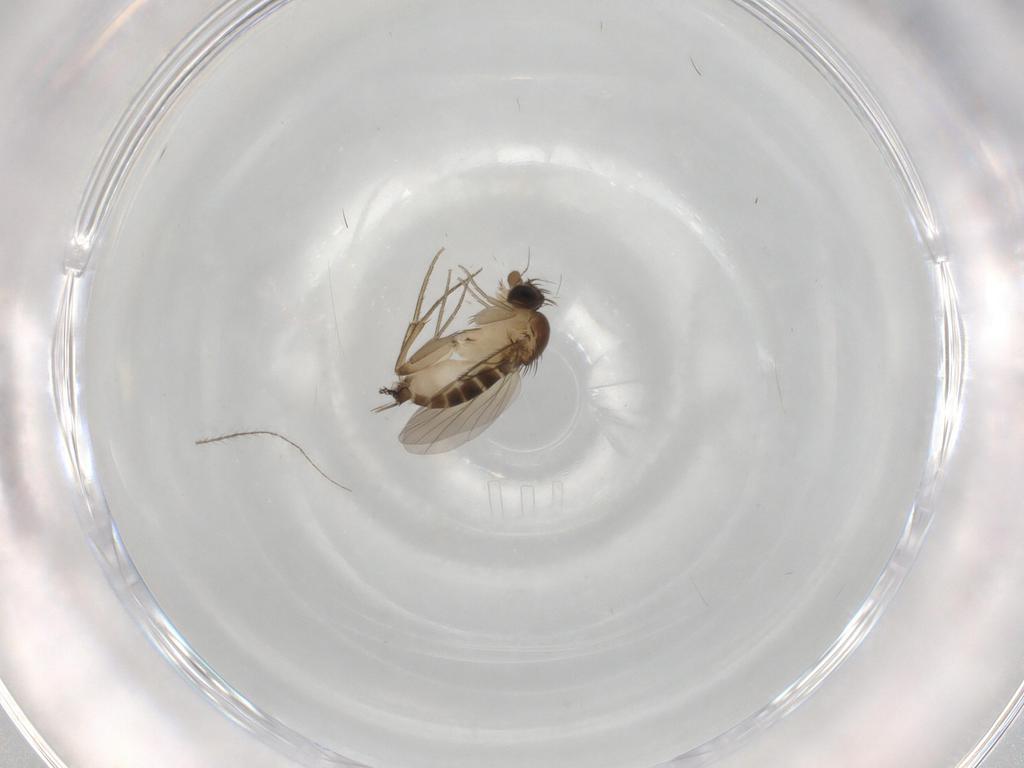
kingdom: Animalia
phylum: Arthropoda
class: Insecta
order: Diptera
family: Phoridae
